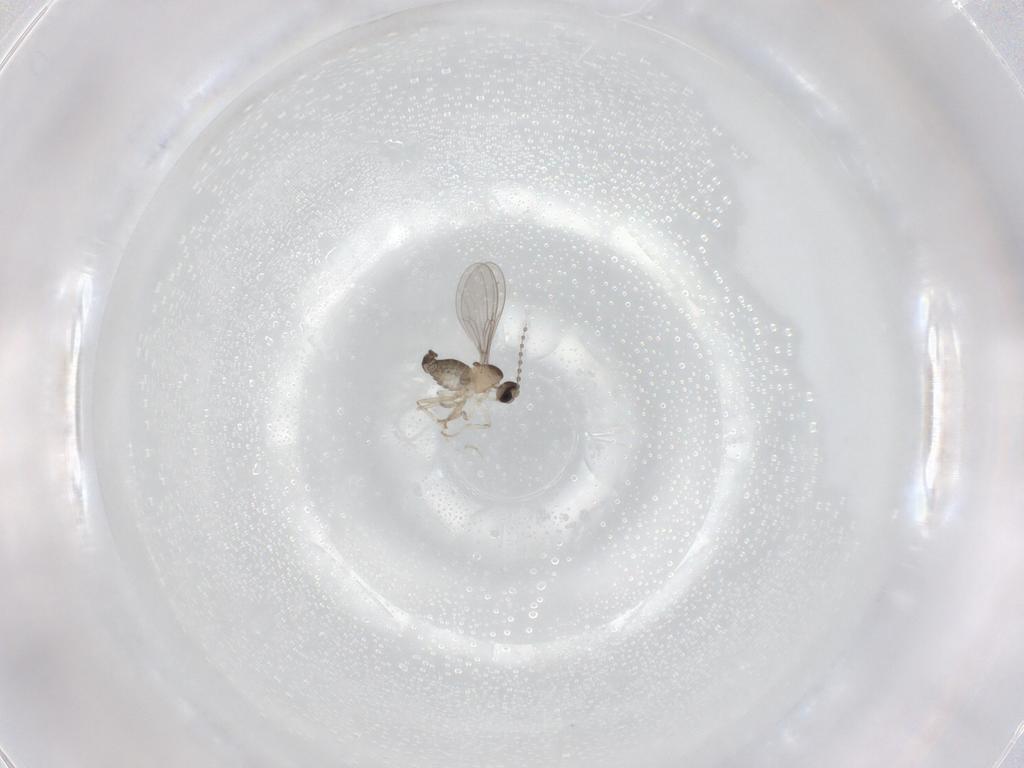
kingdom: Animalia
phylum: Arthropoda
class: Insecta
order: Diptera
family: Cecidomyiidae
